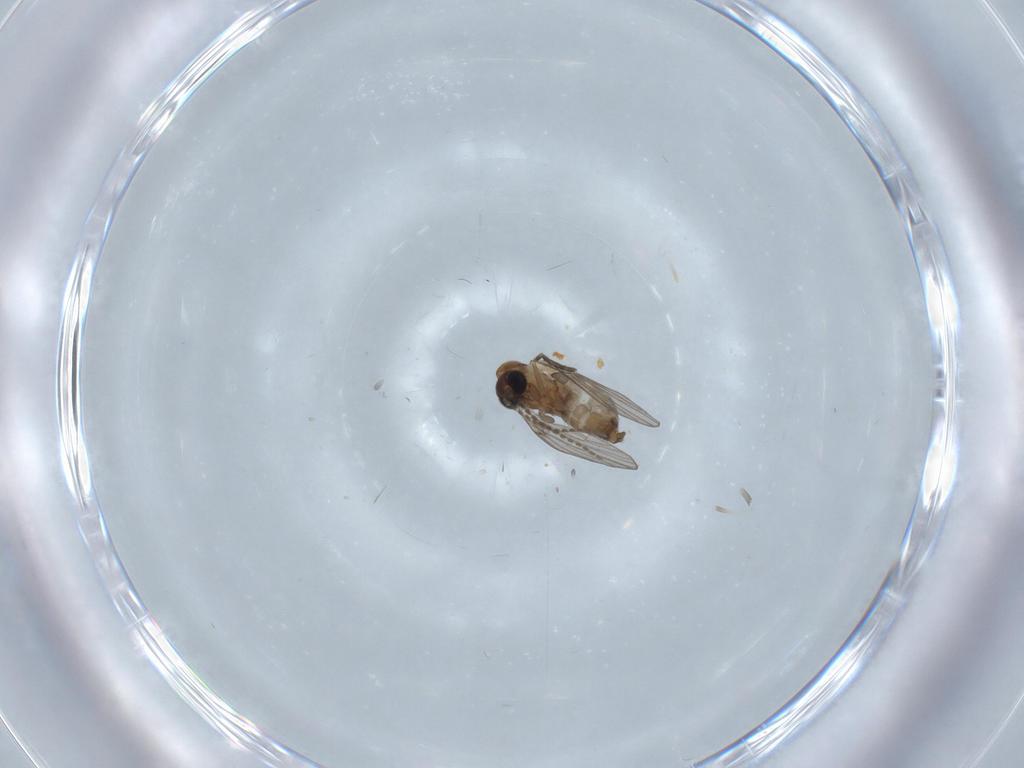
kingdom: Animalia
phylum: Arthropoda
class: Insecta
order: Diptera
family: Psychodidae
